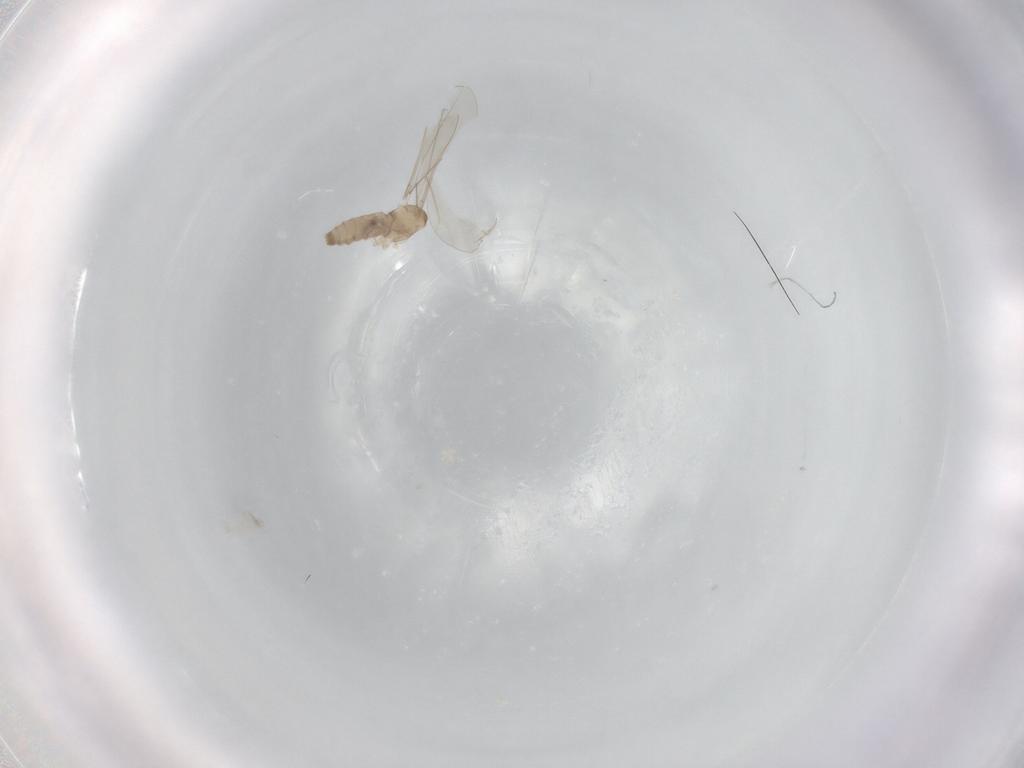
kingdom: Animalia
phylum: Arthropoda
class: Insecta
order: Diptera
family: Cecidomyiidae
